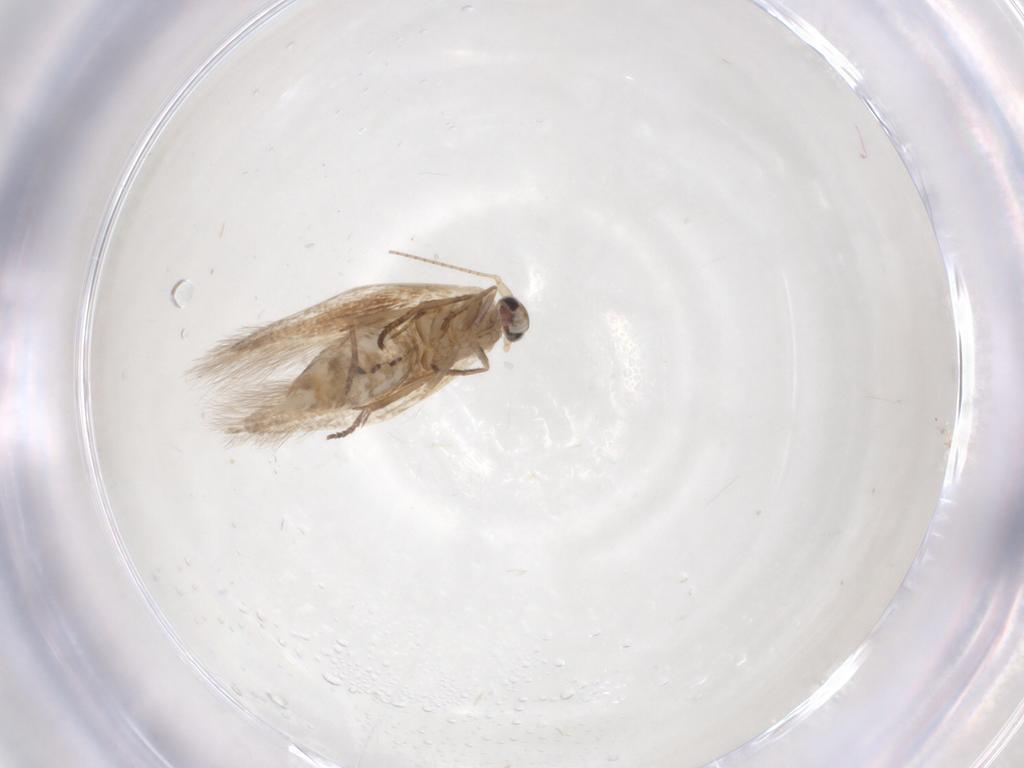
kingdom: Animalia
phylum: Arthropoda
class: Insecta
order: Lepidoptera
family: Bucculatricidae
